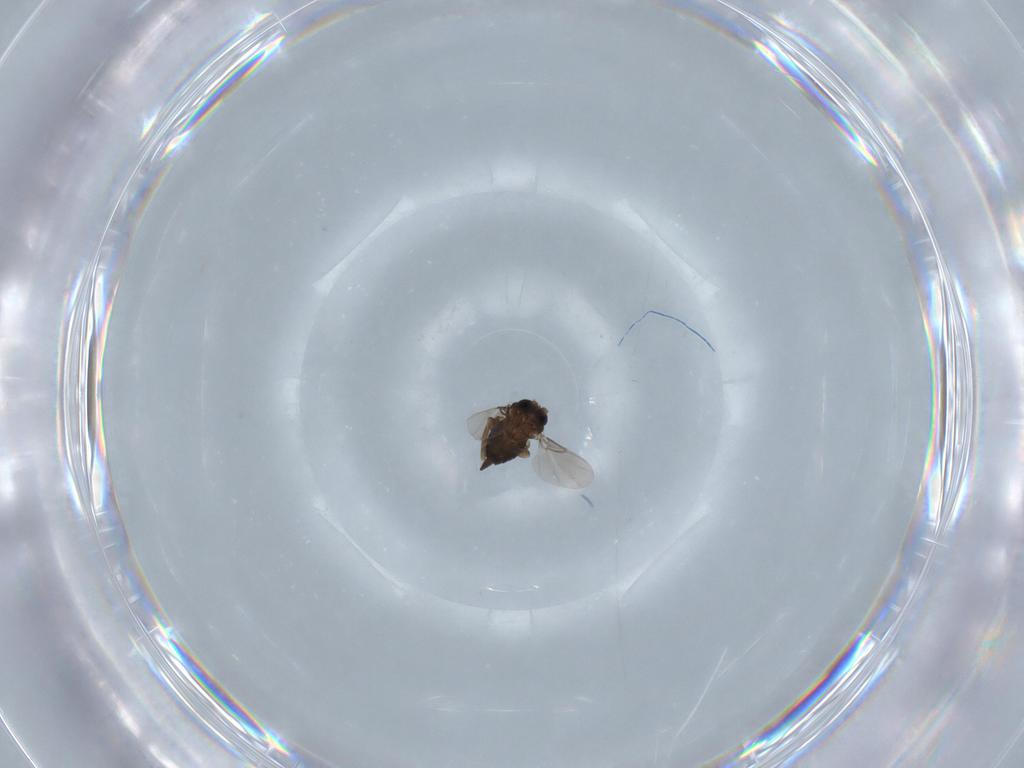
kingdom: Animalia
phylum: Arthropoda
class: Insecta
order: Diptera
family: Phoridae
